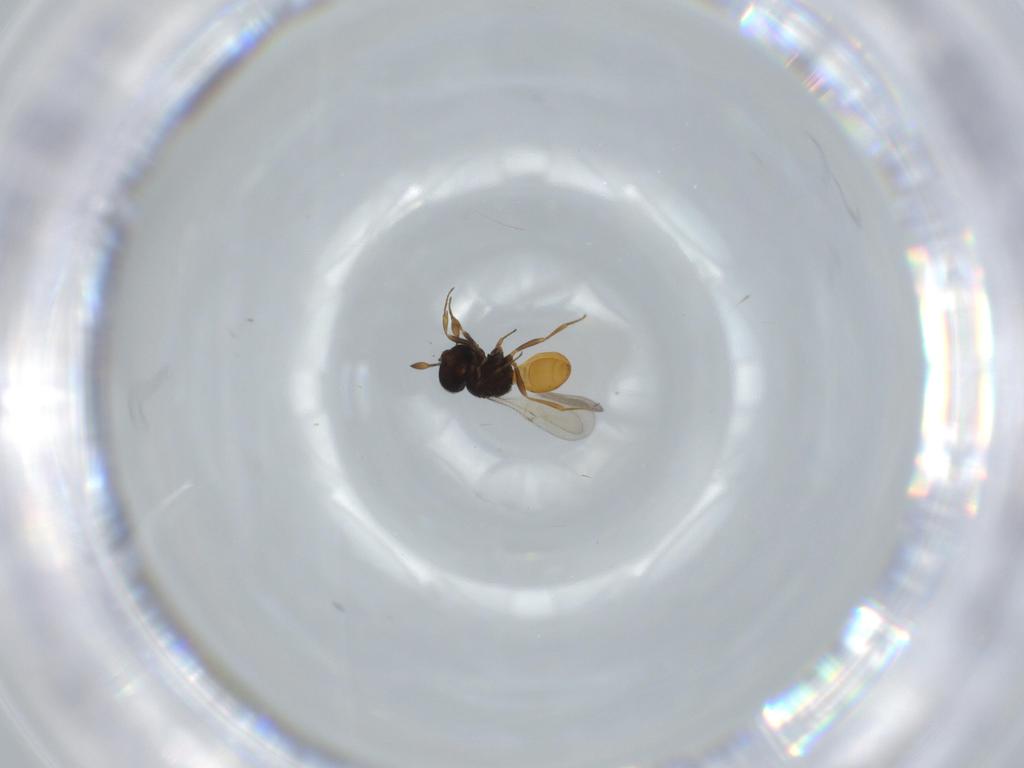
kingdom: Animalia
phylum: Arthropoda
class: Insecta
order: Hymenoptera
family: Scelionidae
